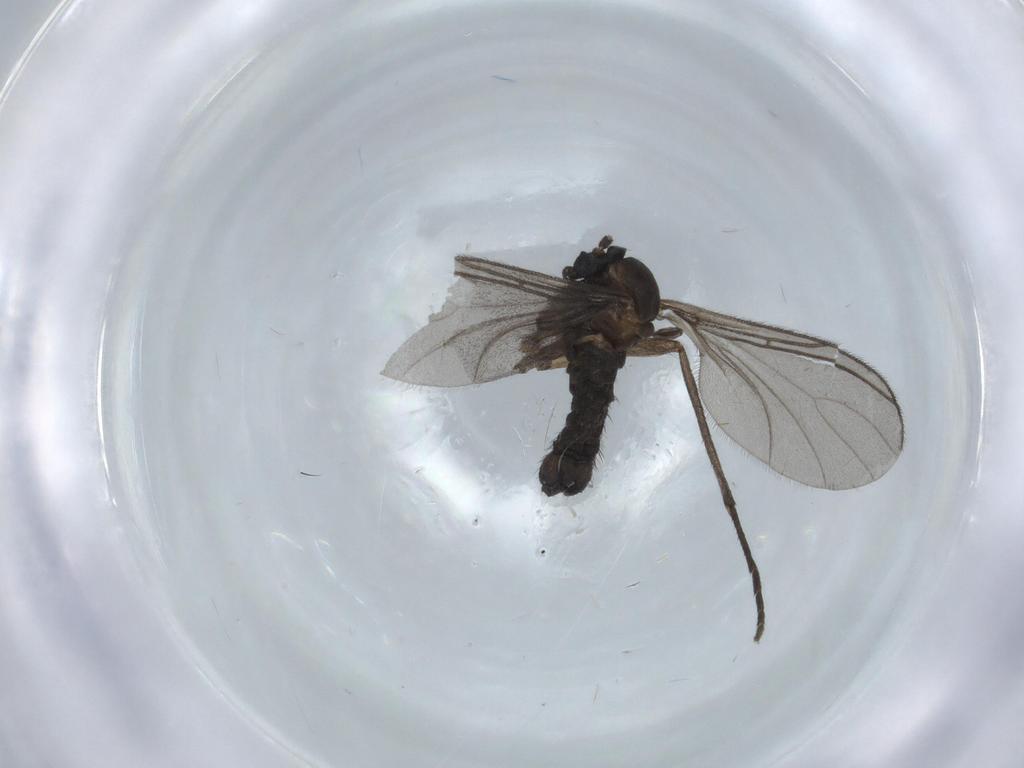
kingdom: Animalia
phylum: Arthropoda
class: Insecta
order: Diptera
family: Sciaridae
